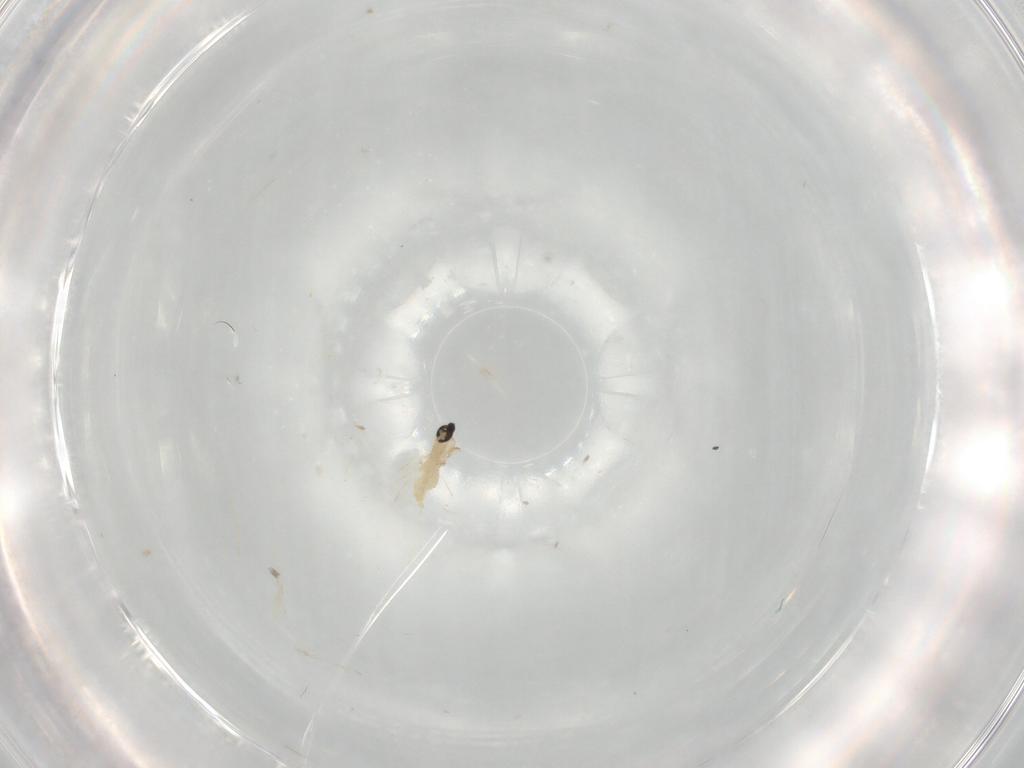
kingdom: Animalia
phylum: Arthropoda
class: Insecta
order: Diptera
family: Cecidomyiidae
